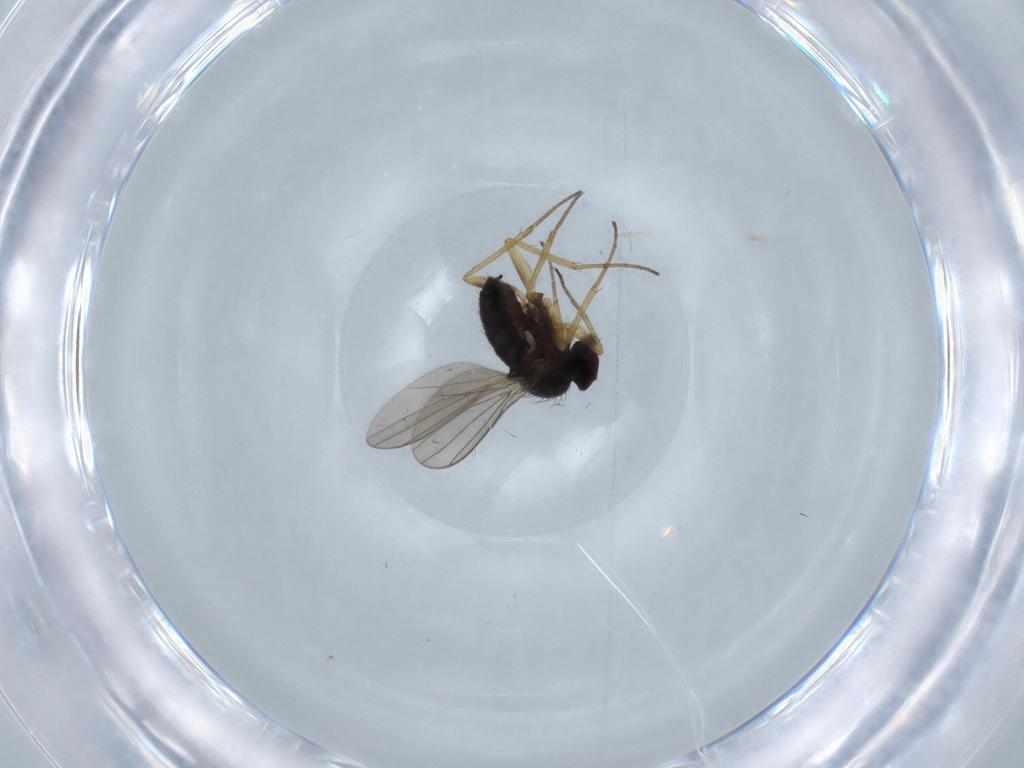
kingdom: Animalia
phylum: Arthropoda
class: Insecta
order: Diptera
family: Dolichopodidae
